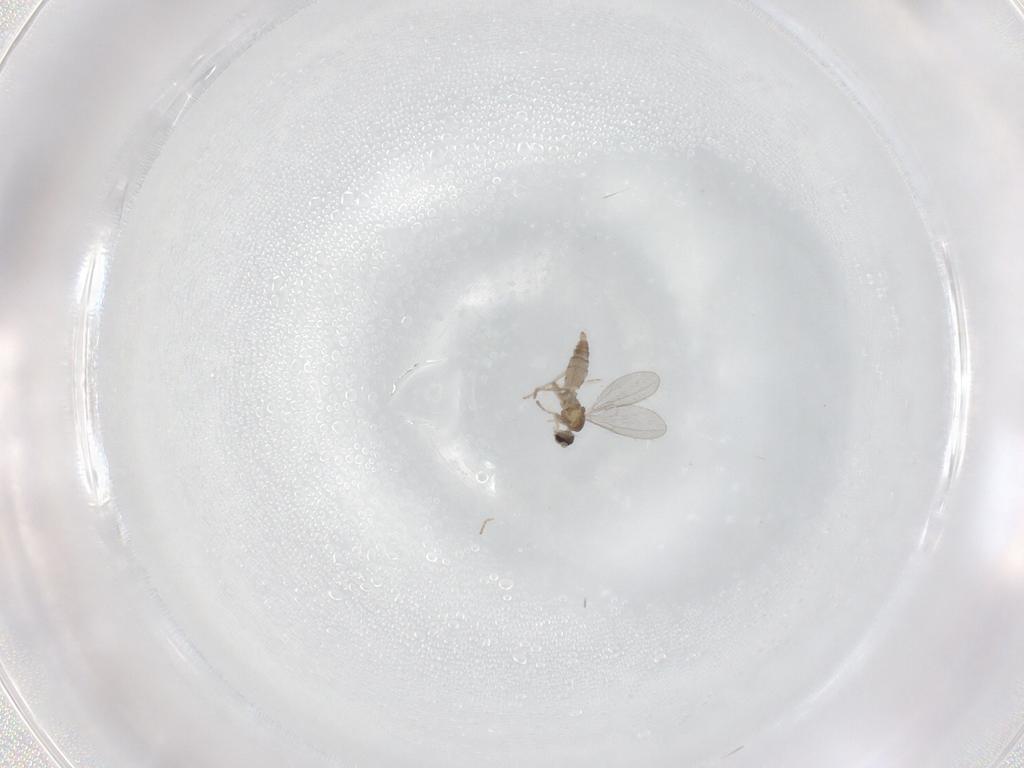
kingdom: Animalia
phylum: Arthropoda
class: Insecta
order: Diptera
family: Cecidomyiidae
